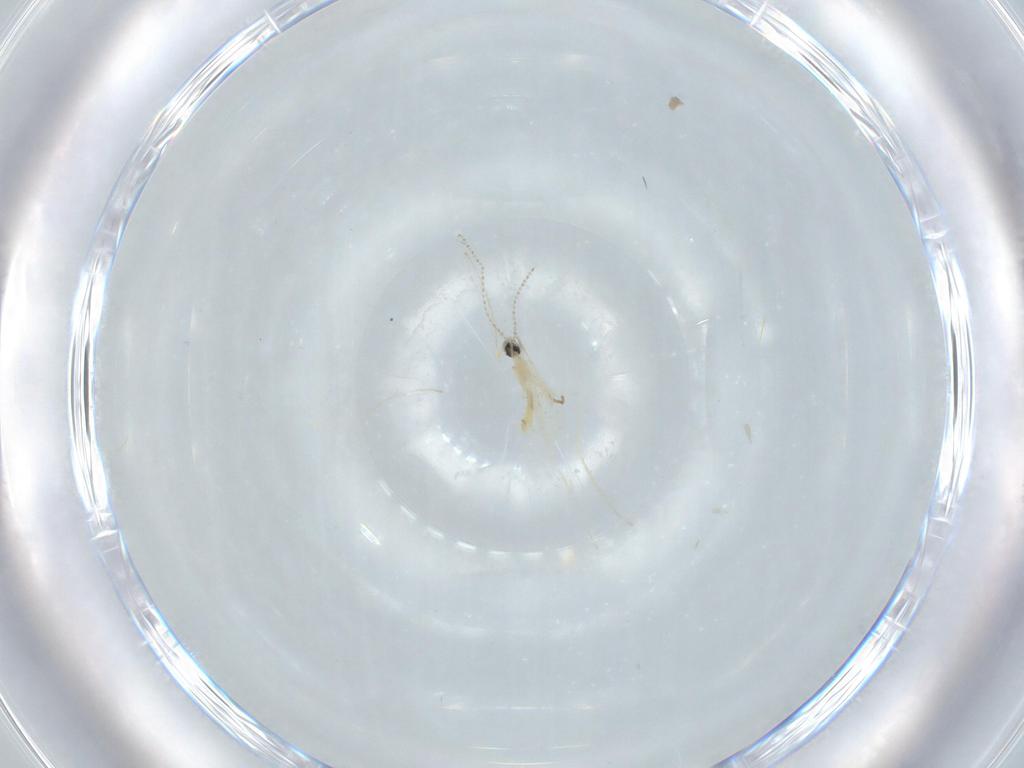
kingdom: Animalia
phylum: Arthropoda
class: Insecta
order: Diptera
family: Cecidomyiidae
